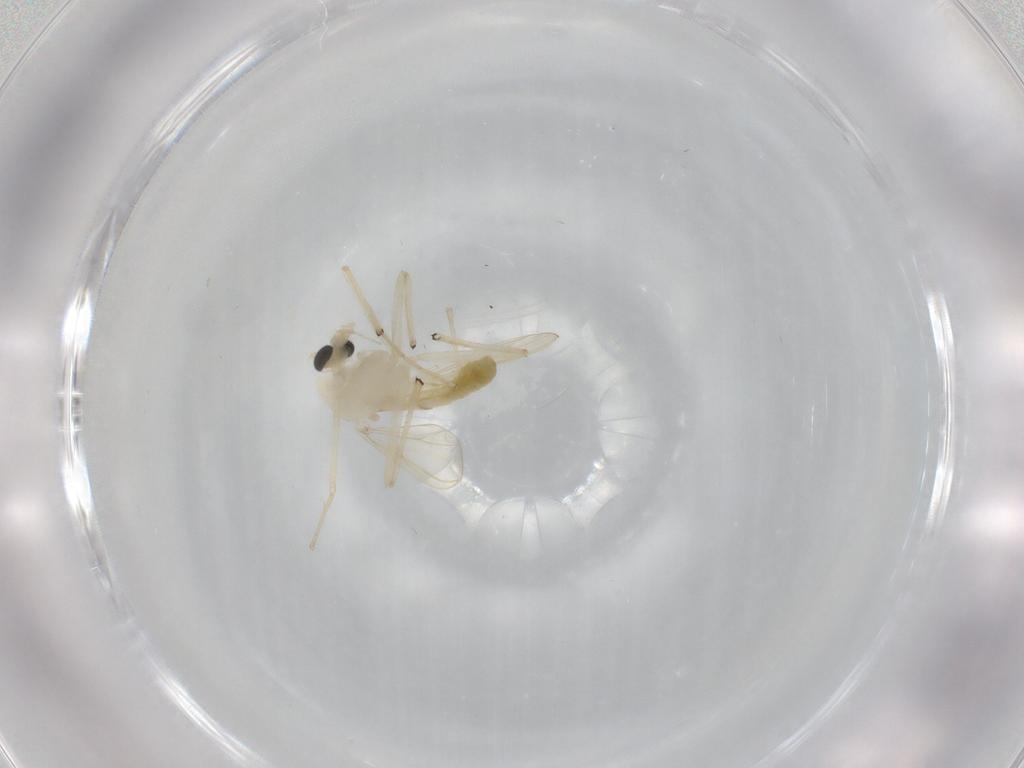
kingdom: Animalia
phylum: Arthropoda
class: Insecta
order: Diptera
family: Chironomidae
